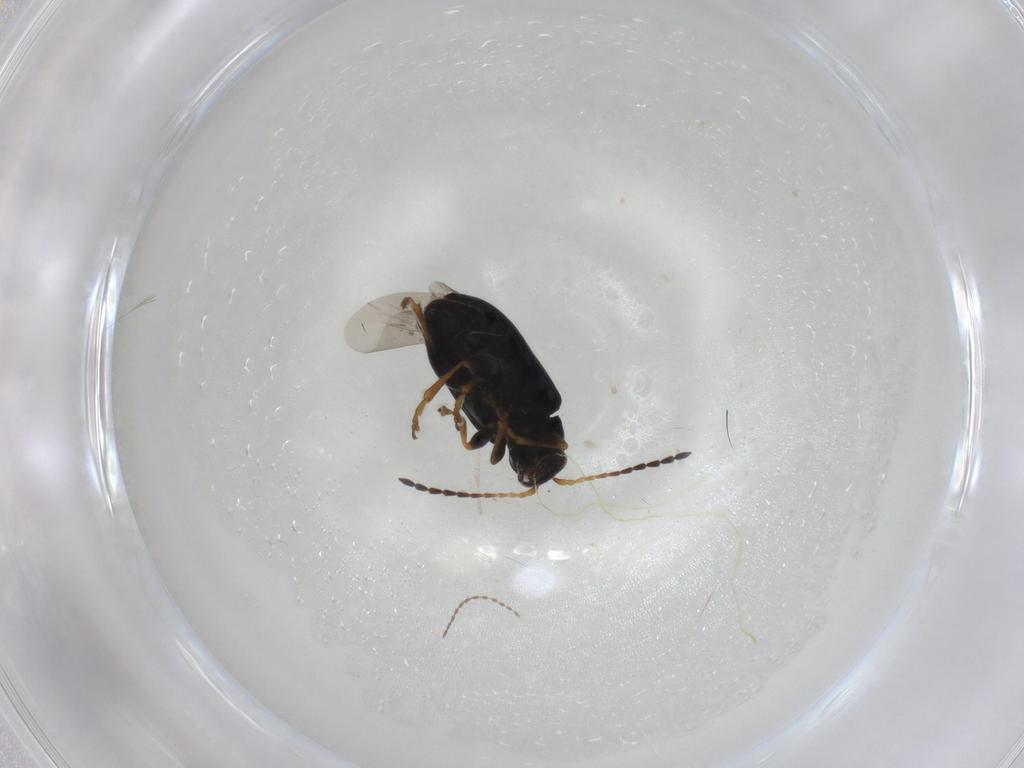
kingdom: Animalia
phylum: Arthropoda
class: Insecta
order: Coleoptera
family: Chrysomelidae
